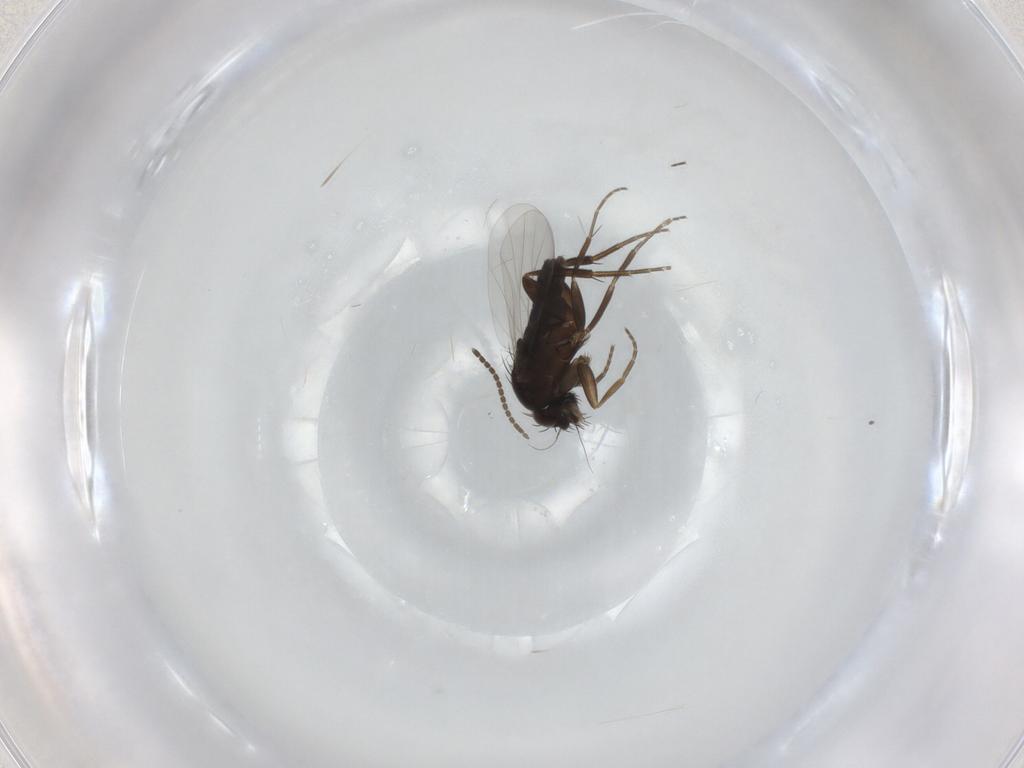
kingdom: Animalia
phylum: Arthropoda
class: Insecta
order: Diptera
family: Phoridae
